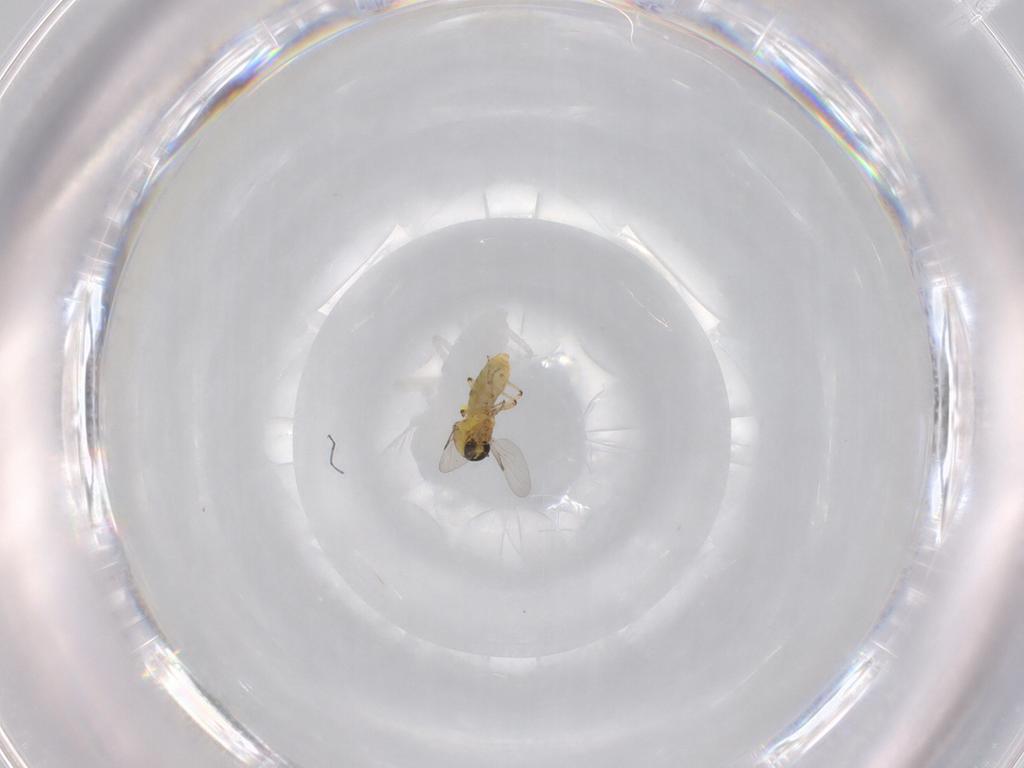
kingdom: Animalia
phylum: Arthropoda
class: Insecta
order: Diptera
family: Ceratopogonidae
